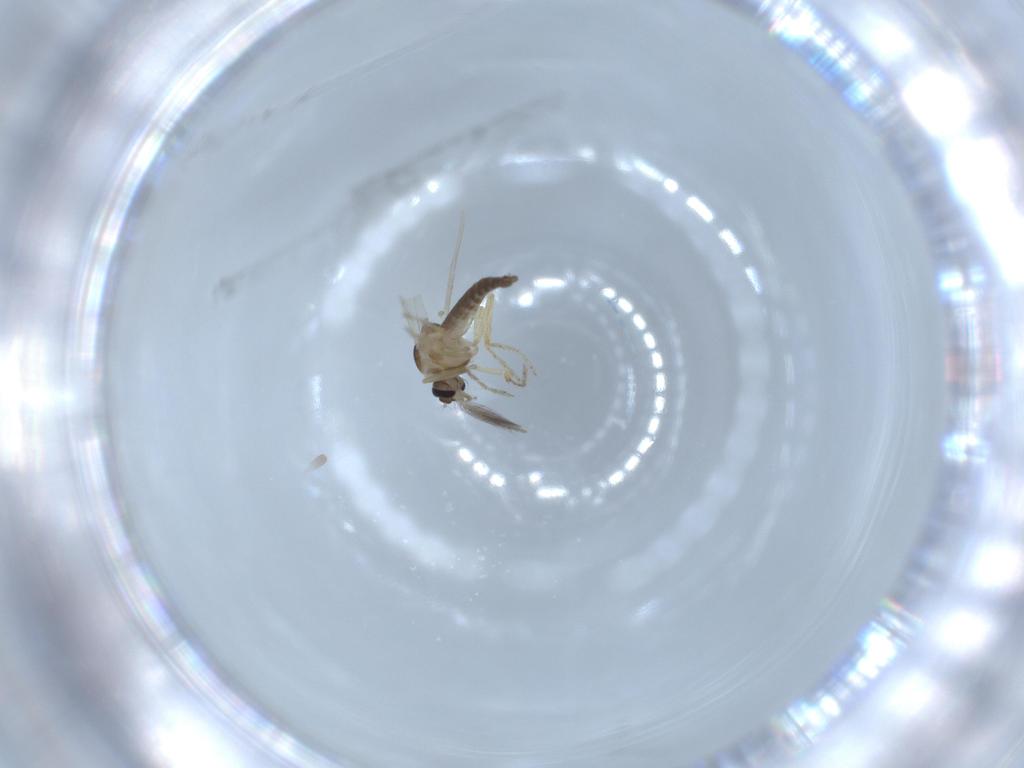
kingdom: Animalia
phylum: Arthropoda
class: Insecta
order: Diptera
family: Ceratopogonidae
